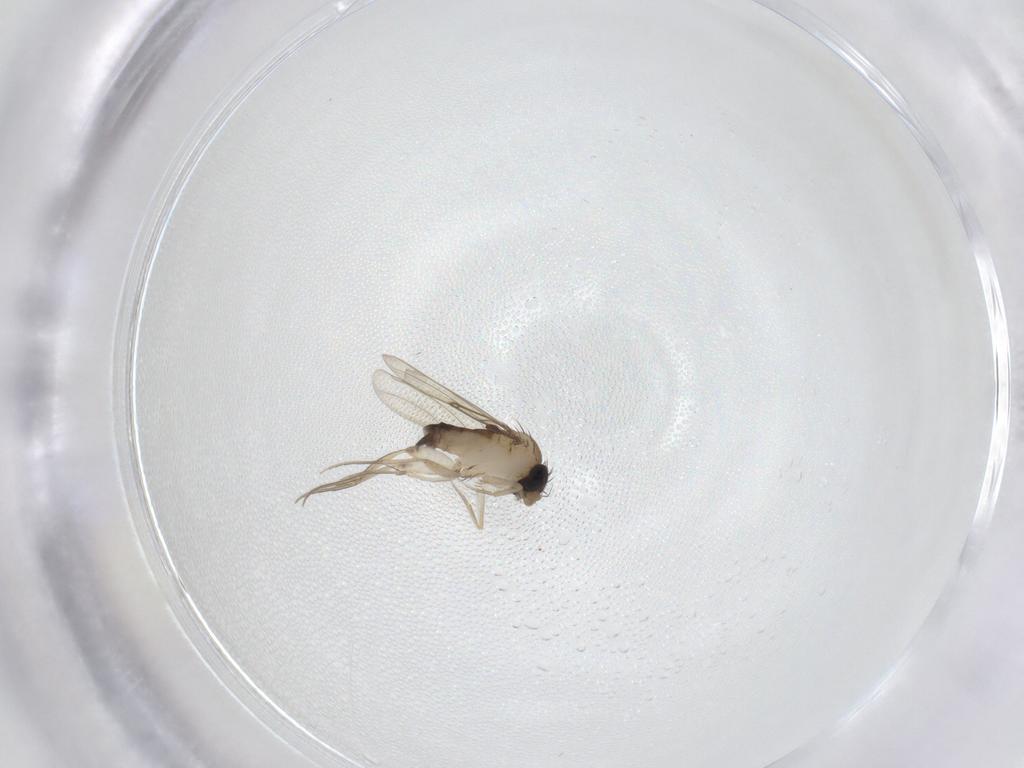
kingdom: Animalia
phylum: Arthropoda
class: Insecta
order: Diptera
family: Phoridae
